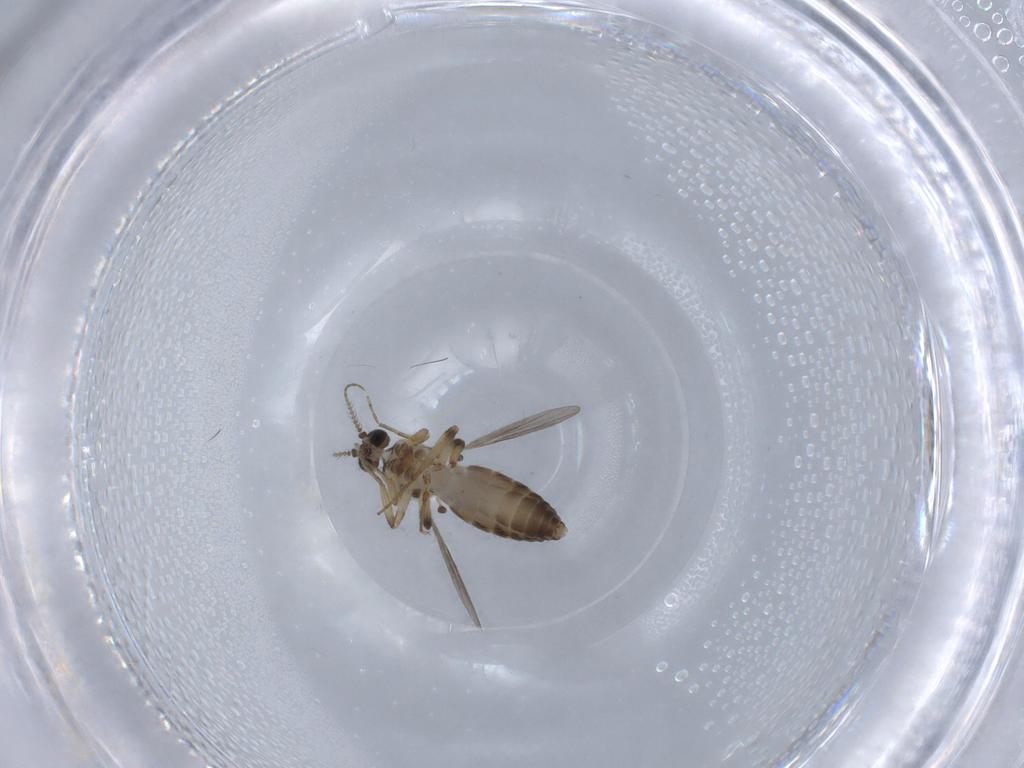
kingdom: Animalia
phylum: Arthropoda
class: Insecta
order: Diptera
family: Ceratopogonidae
